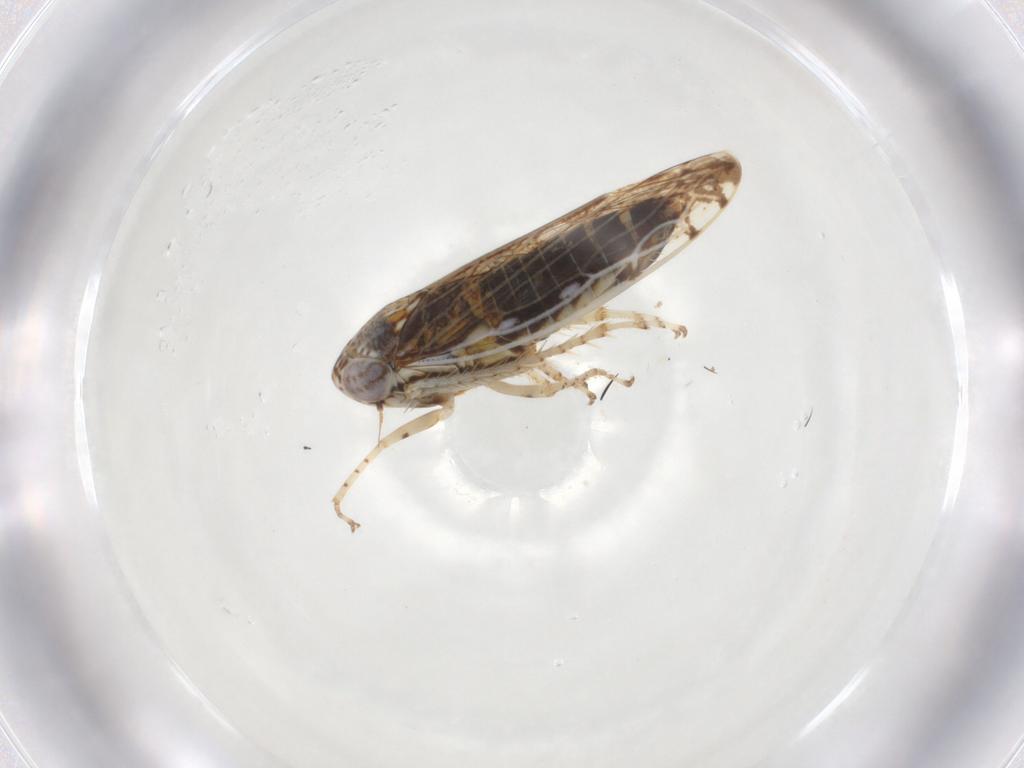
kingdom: Animalia
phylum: Arthropoda
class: Insecta
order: Hemiptera
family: Cicadellidae
